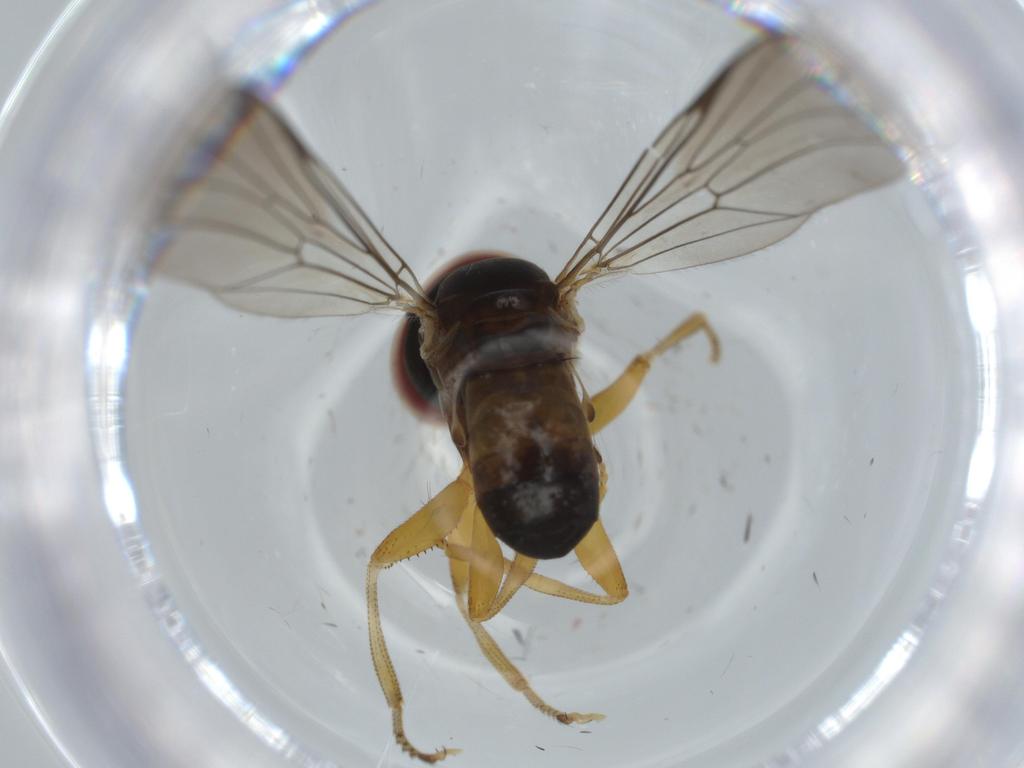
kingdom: Animalia
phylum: Arthropoda
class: Insecta
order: Diptera
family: Pipunculidae
